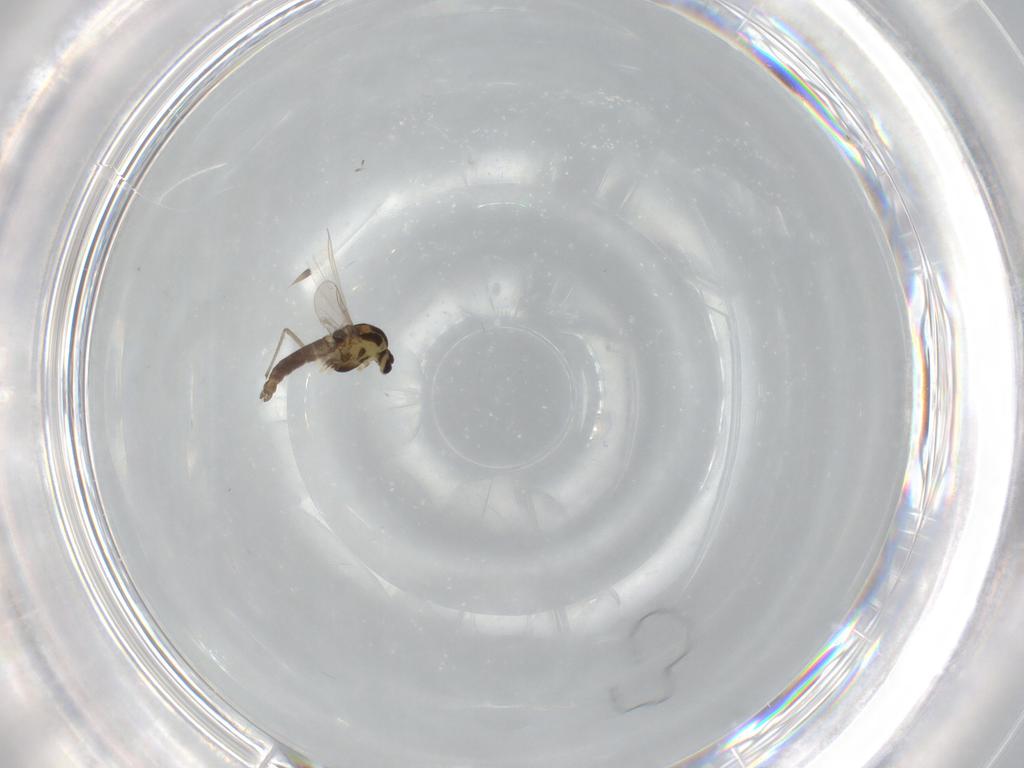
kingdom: Animalia
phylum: Arthropoda
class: Insecta
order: Diptera
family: Chironomidae
